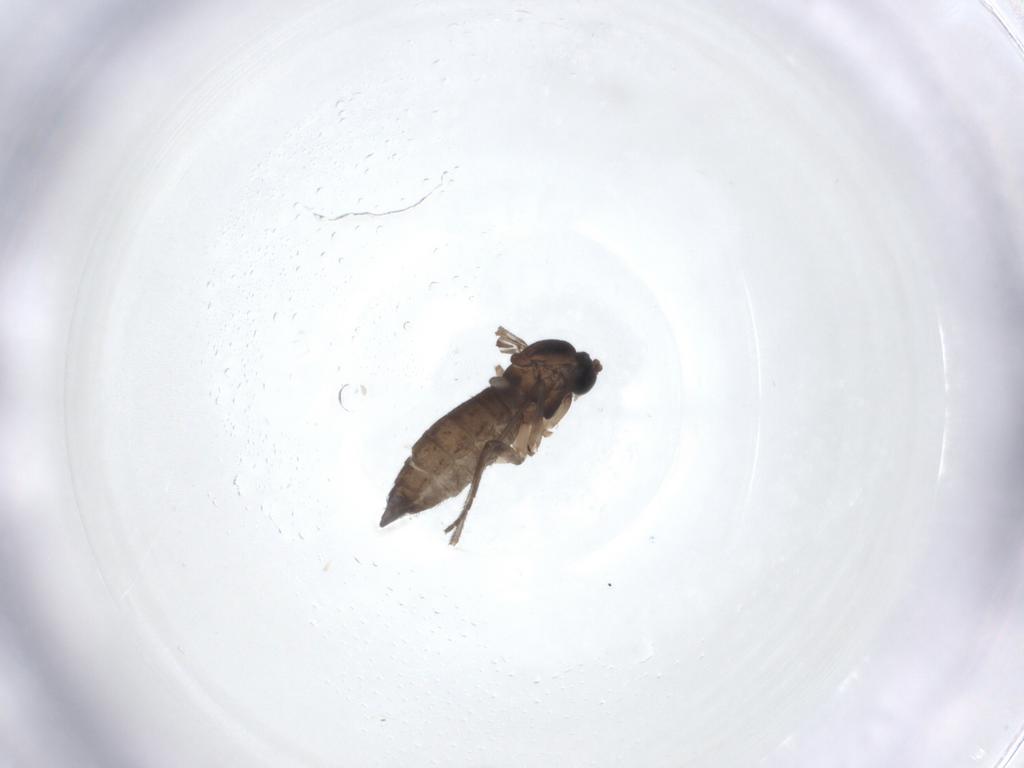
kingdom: Animalia
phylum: Arthropoda
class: Insecta
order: Diptera
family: Sciaridae
